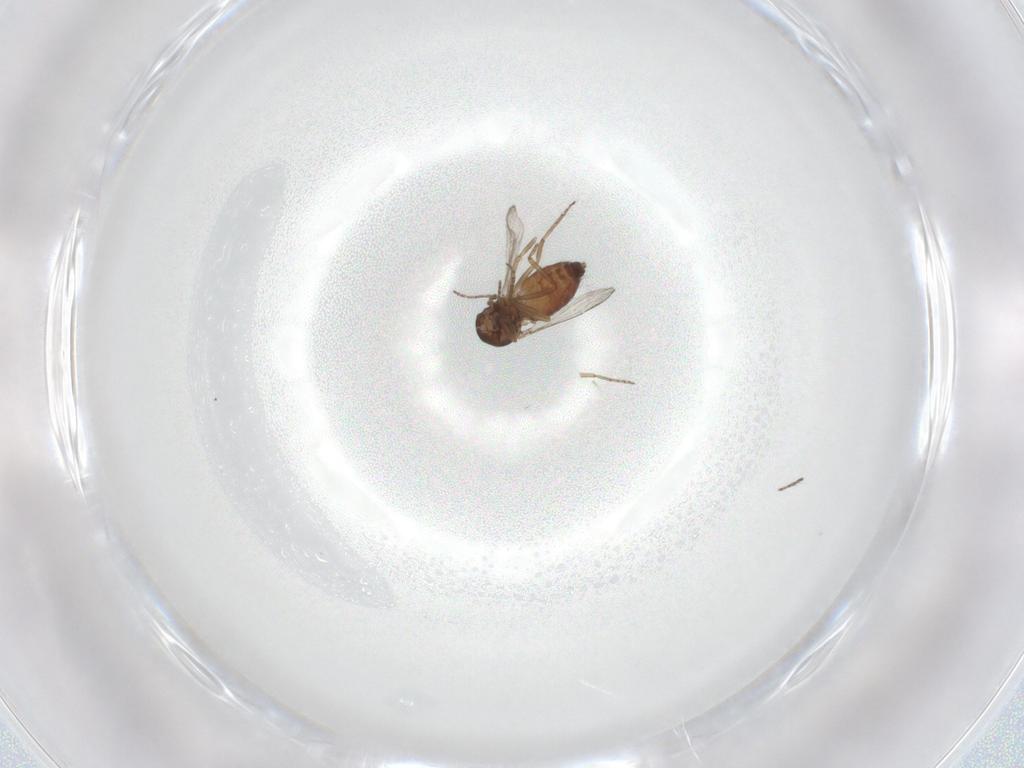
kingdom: Animalia
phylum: Arthropoda
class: Insecta
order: Diptera
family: Ceratopogonidae
